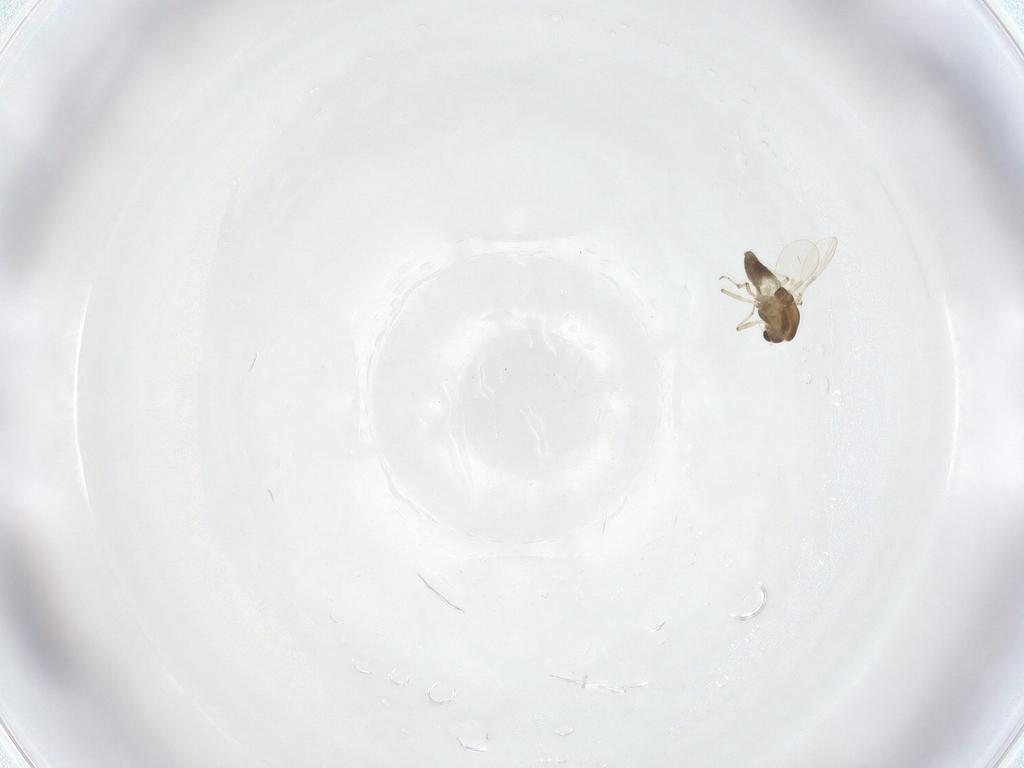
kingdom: Animalia
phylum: Arthropoda
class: Insecta
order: Diptera
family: Chironomidae
